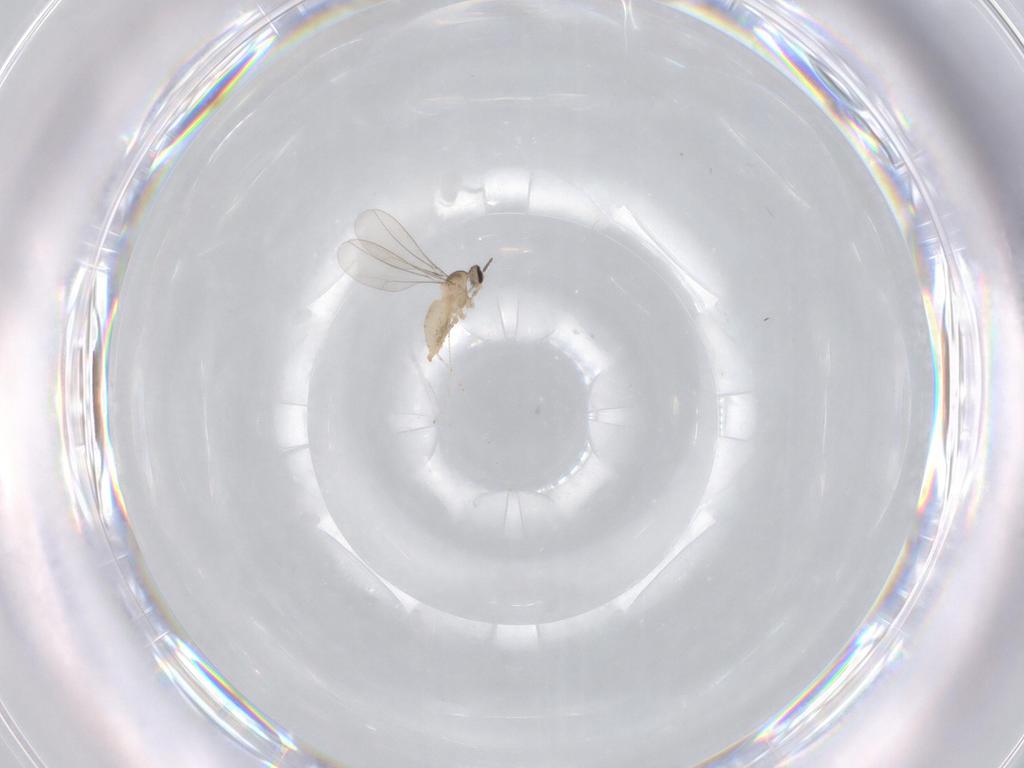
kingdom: Animalia
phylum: Arthropoda
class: Insecta
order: Diptera
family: Cecidomyiidae
